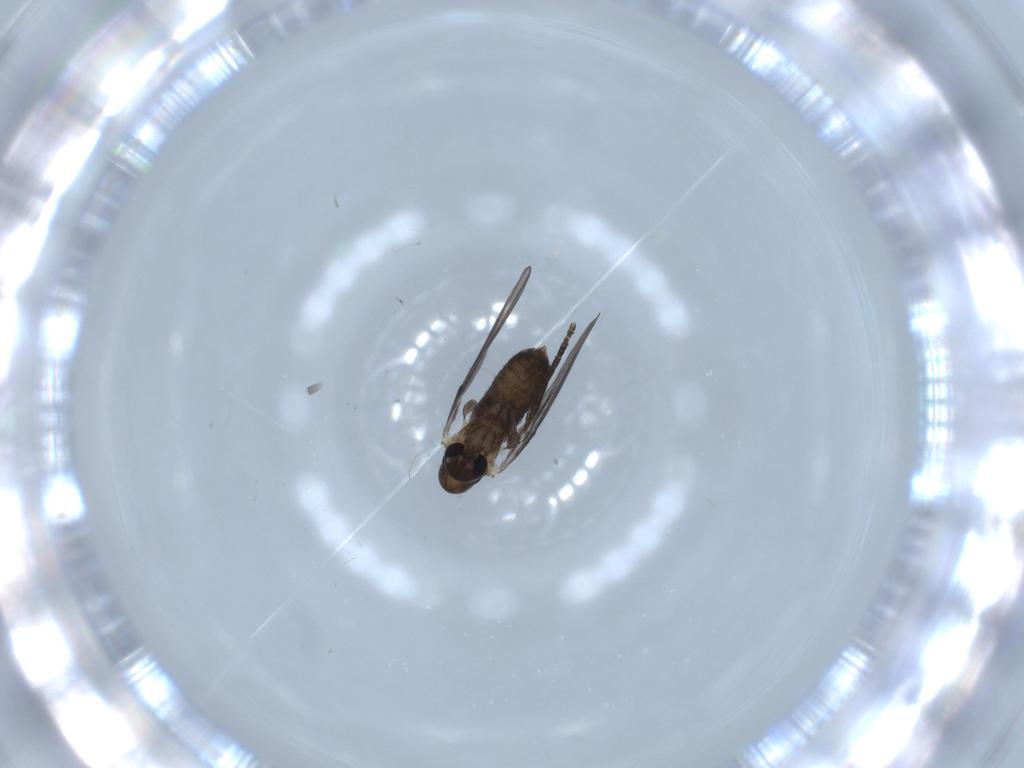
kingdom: Animalia
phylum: Arthropoda
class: Insecta
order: Diptera
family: Psychodidae
